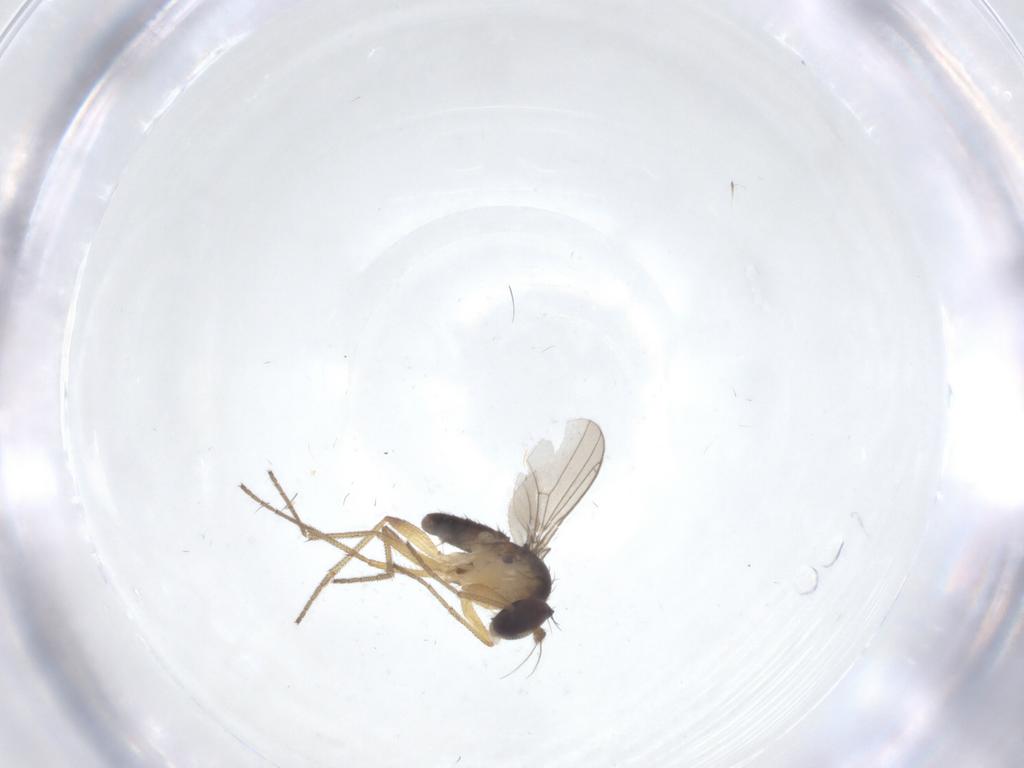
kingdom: Animalia
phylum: Arthropoda
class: Insecta
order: Diptera
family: Dolichopodidae
